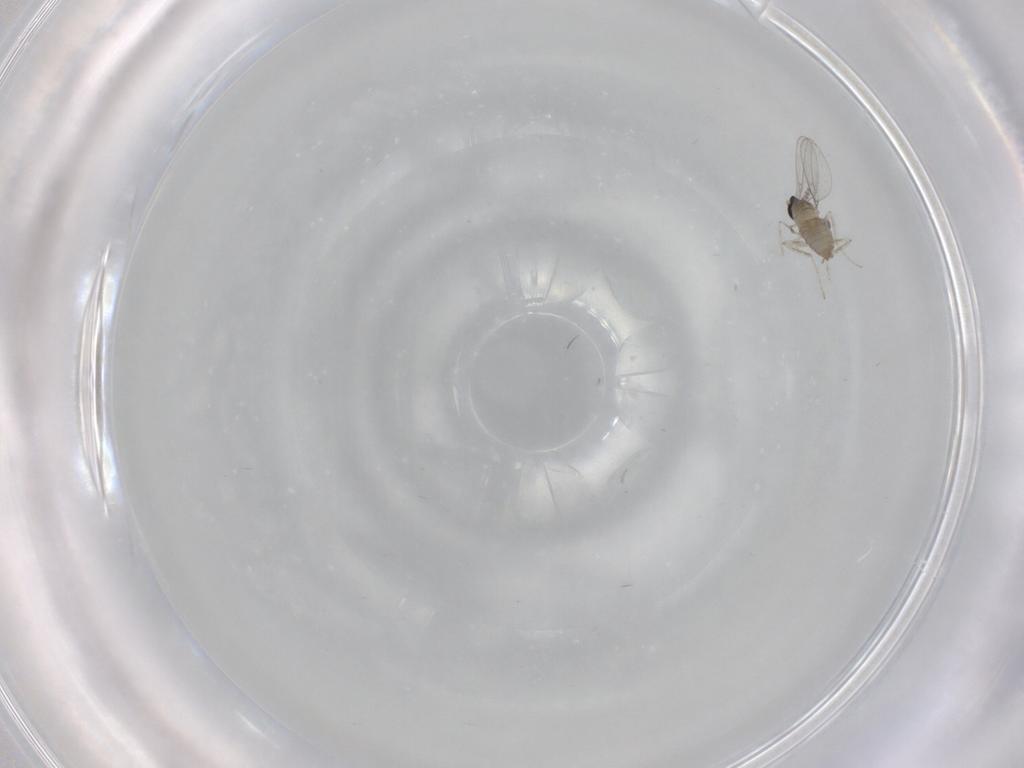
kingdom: Animalia
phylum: Arthropoda
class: Insecta
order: Diptera
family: Cecidomyiidae
